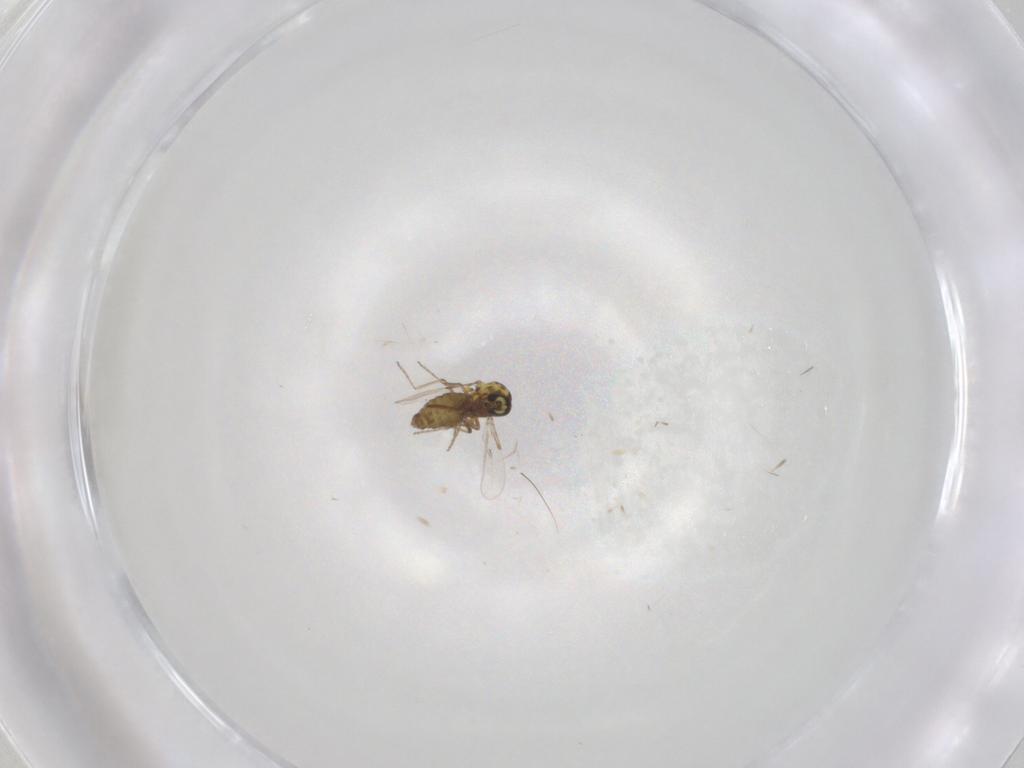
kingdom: Animalia
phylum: Arthropoda
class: Insecta
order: Diptera
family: Ceratopogonidae
